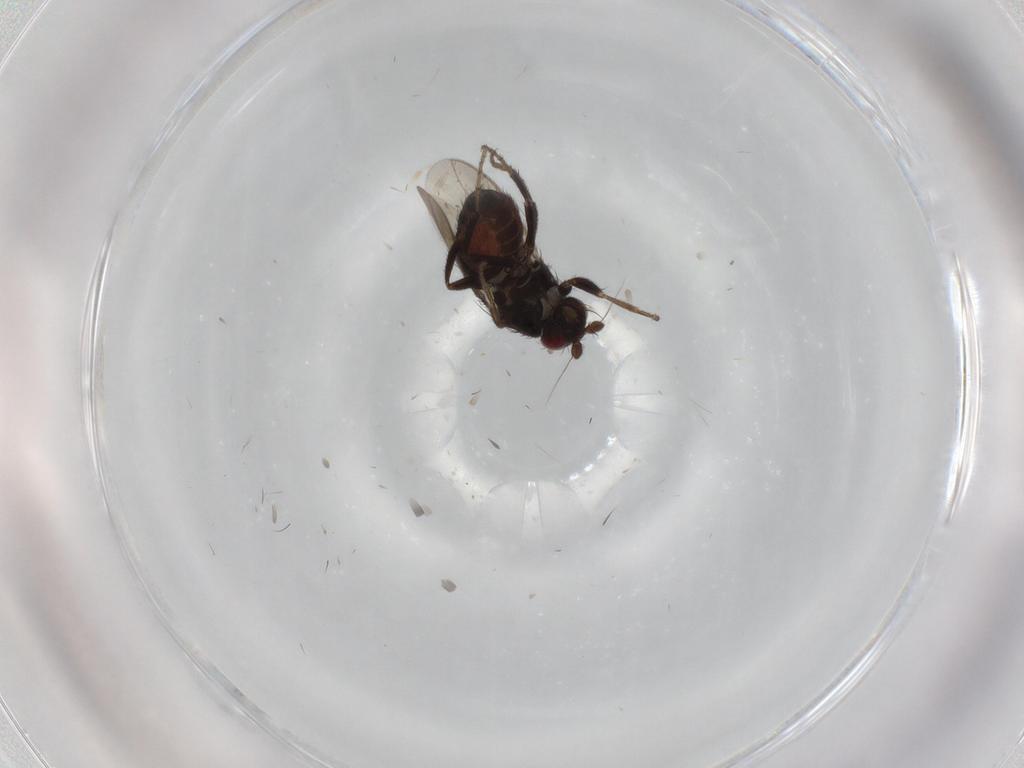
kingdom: Animalia
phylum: Arthropoda
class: Insecta
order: Diptera
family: Sphaeroceridae
